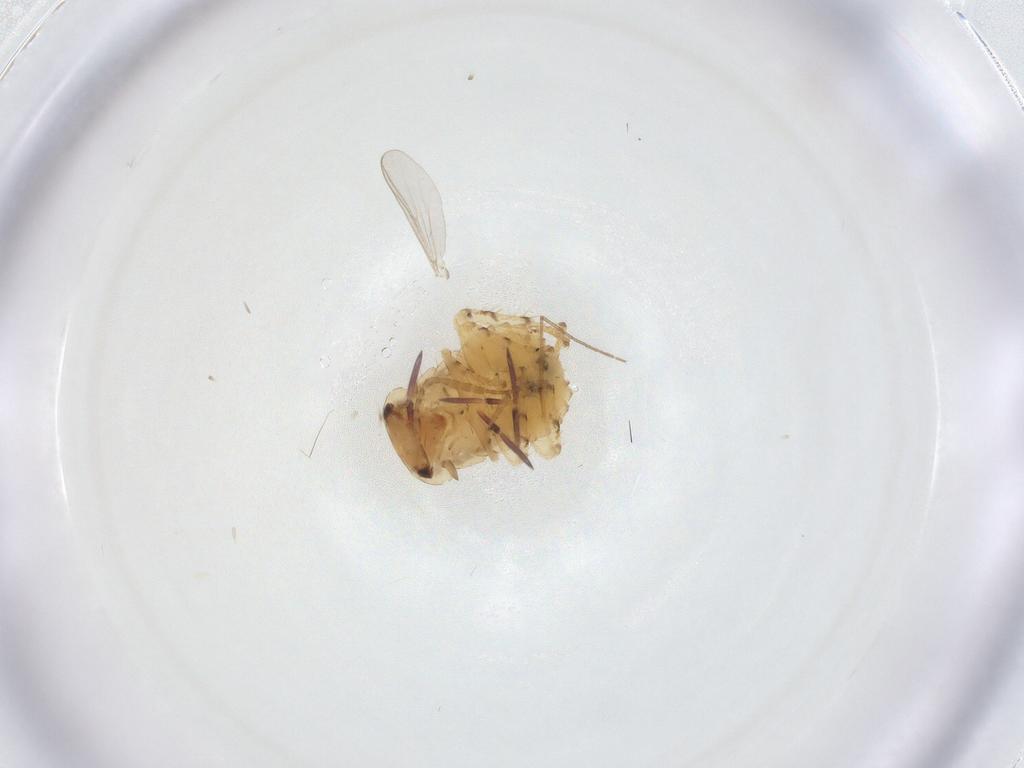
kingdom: Animalia
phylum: Arthropoda
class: Insecta
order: Blattodea
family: Ectobiidae
